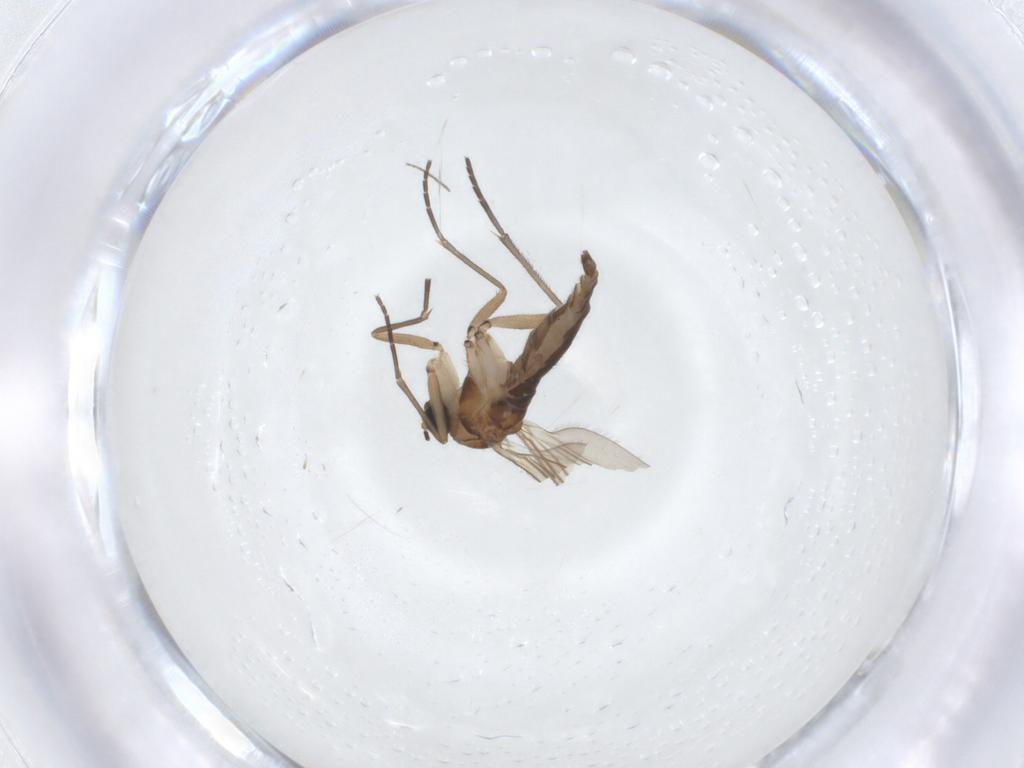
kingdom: Animalia
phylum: Arthropoda
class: Insecta
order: Diptera
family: Sciaridae
